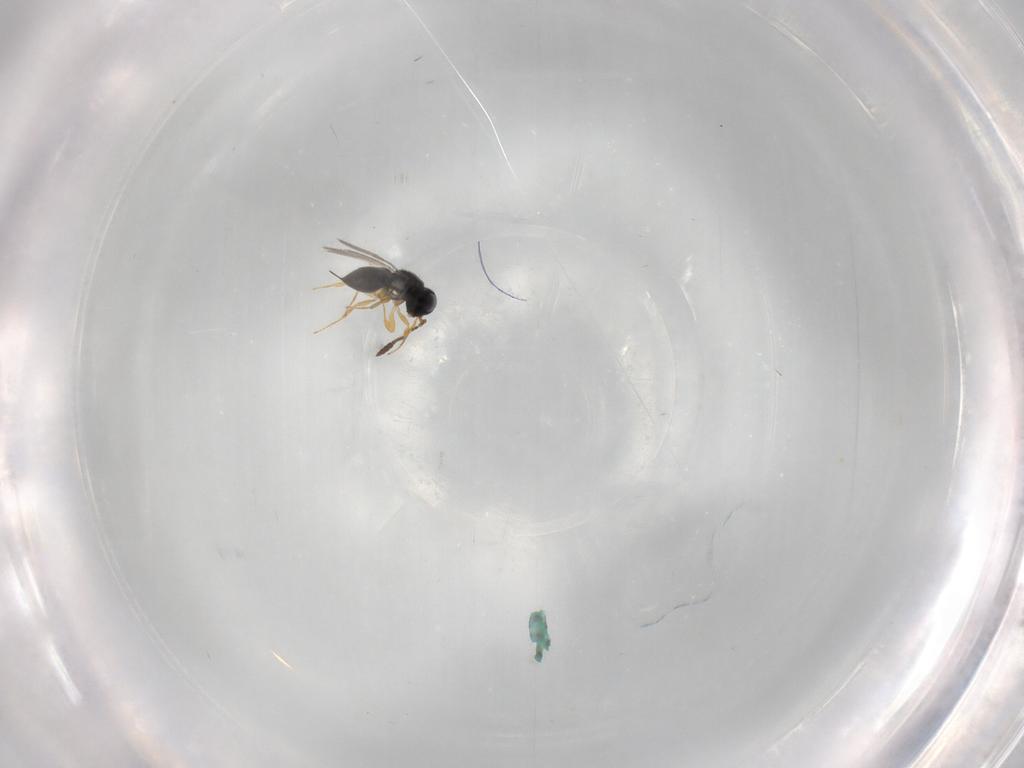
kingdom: Animalia
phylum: Arthropoda
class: Insecta
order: Hymenoptera
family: Scelionidae
